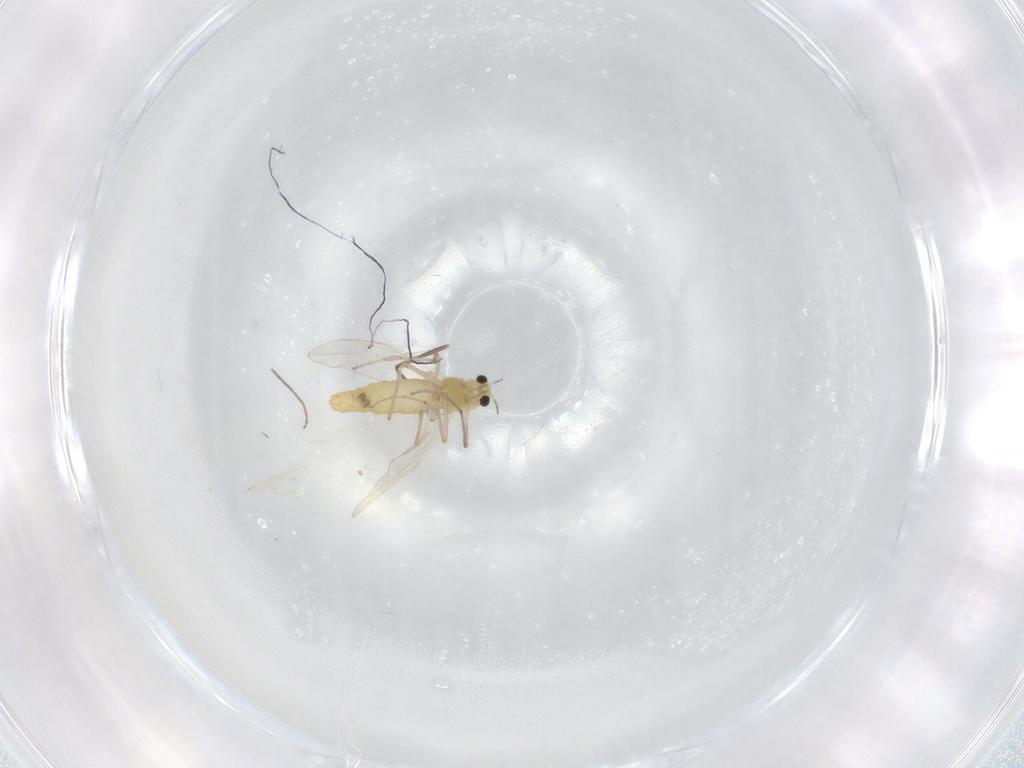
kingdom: Animalia
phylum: Arthropoda
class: Insecta
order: Diptera
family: Chironomidae
